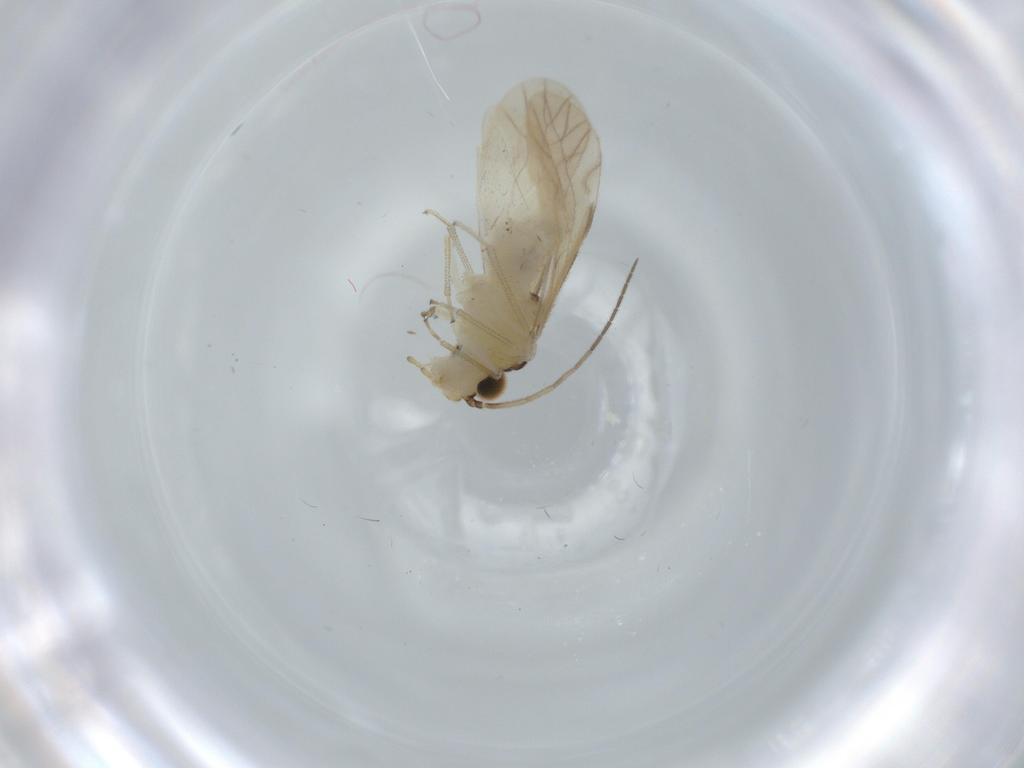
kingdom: Animalia
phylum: Arthropoda
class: Insecta
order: Psocodea
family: Caeciliusidae
